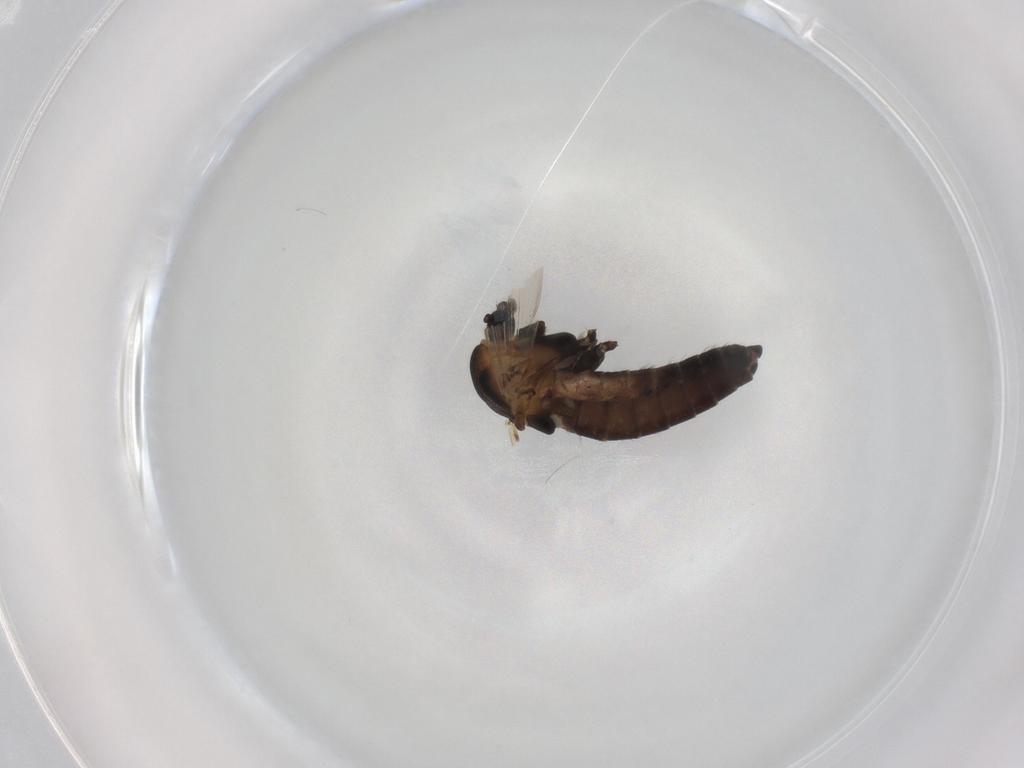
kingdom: Animalia
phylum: Arthropoda
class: Insecta
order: Diptera
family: Chironomidae
